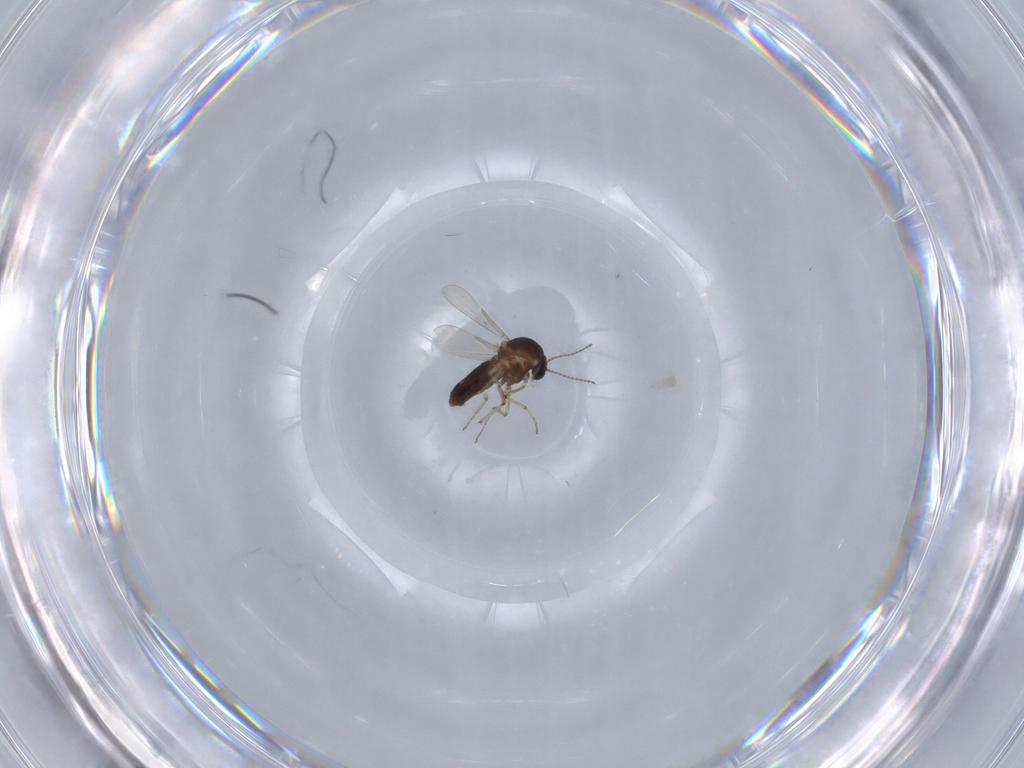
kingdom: Animalia
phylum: Arthropoda
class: Insecta
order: Diptera
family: Ceratopogonidae
